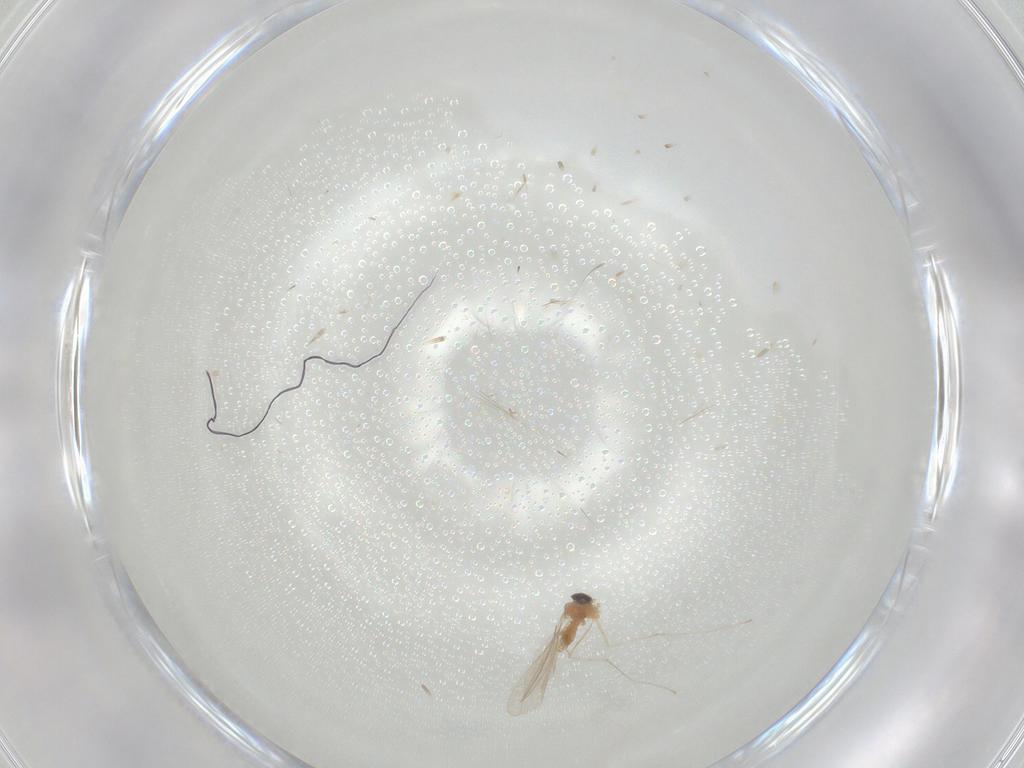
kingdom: Animalia
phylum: Arthropoda
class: Insecta
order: Diptera
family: Cecidomyiidae
